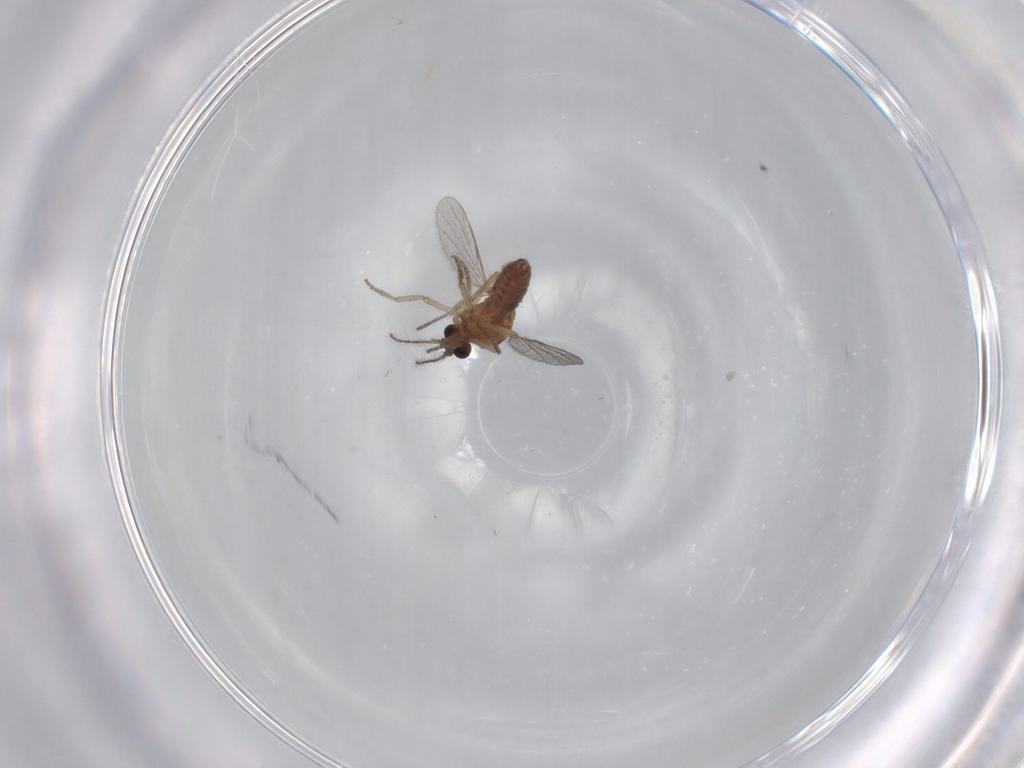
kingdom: Animalia
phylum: Arthropoda
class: Insecta
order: Diptera
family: Ceratopogonidae
